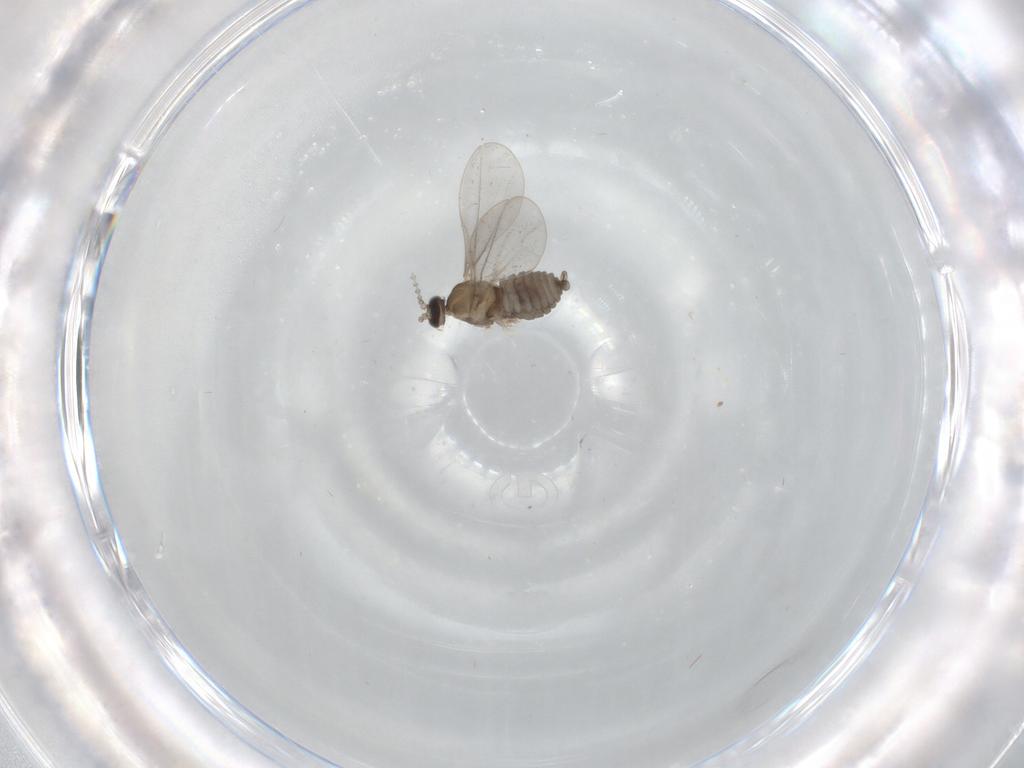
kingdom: Animalia
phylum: Arthropoda
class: Insecta
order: Diptera
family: Cecidomyiidae
